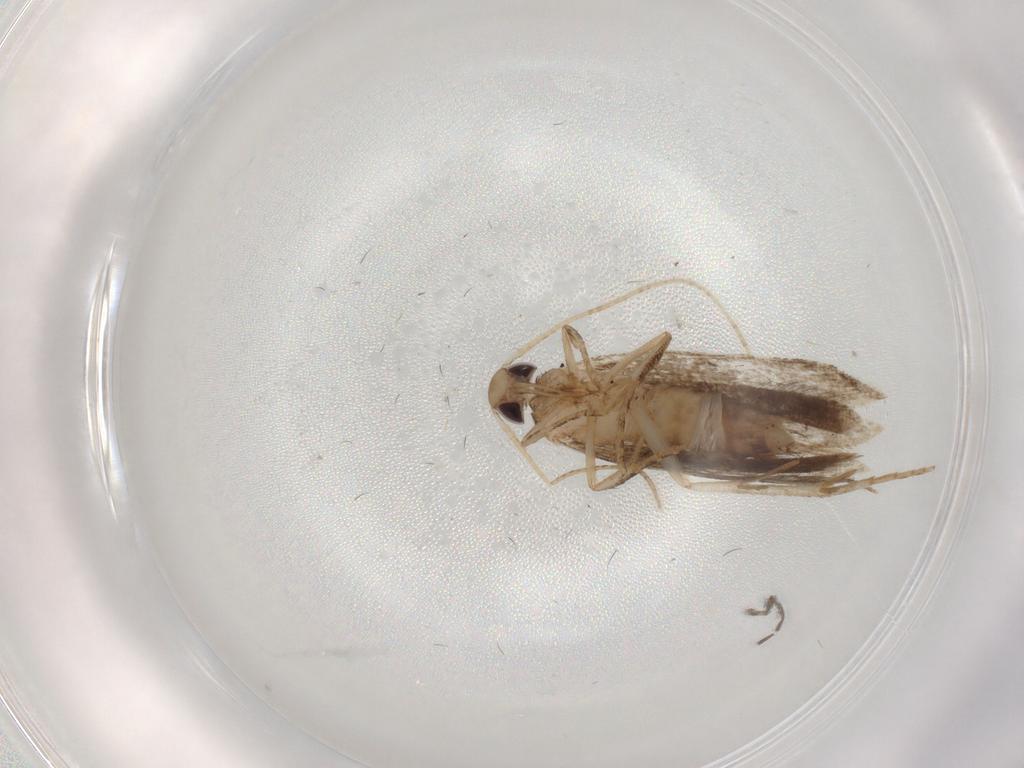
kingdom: Animalia
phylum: Arthropoda
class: Insecta
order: Lepidoptera
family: Gelechiidae
